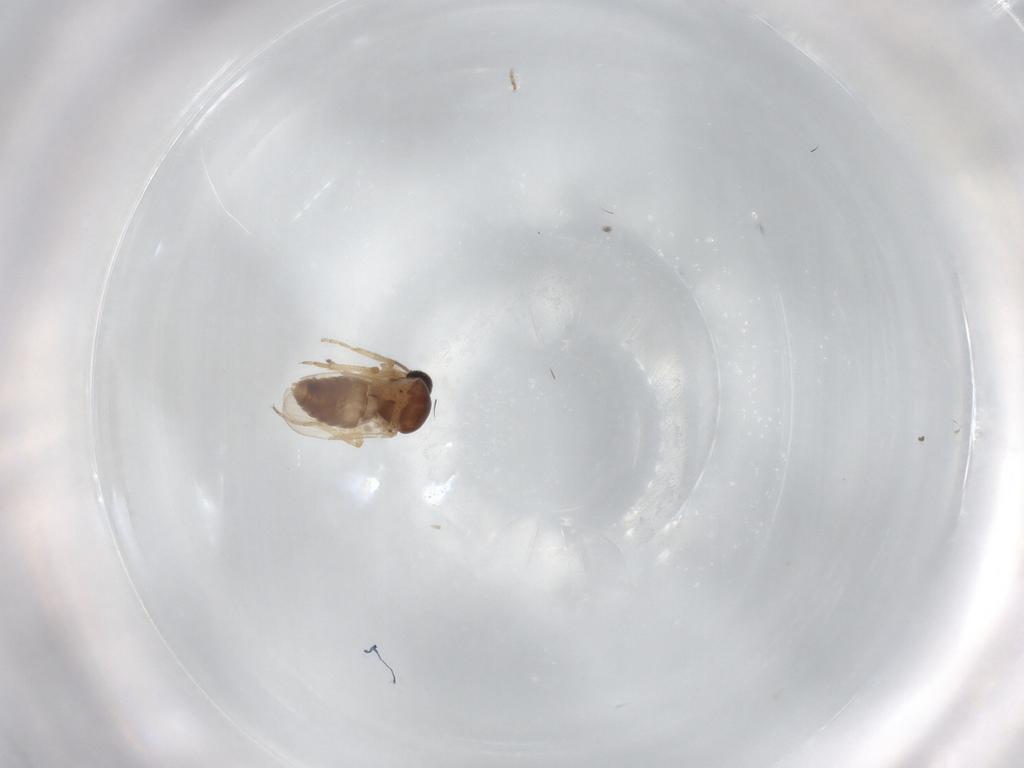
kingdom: Animalia
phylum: Arthropoda
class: Insecta
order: Diptera
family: Ceratopogonidae
